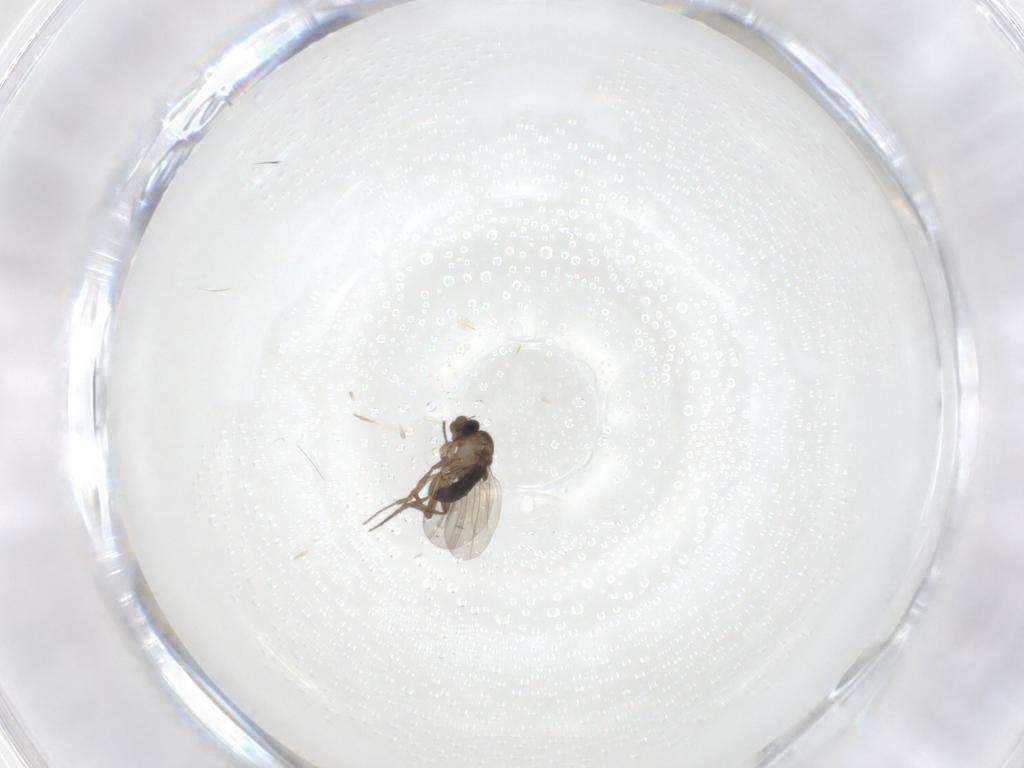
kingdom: Animalia
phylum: Arthropoda
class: Insecta
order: Diptera
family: Phoridae
